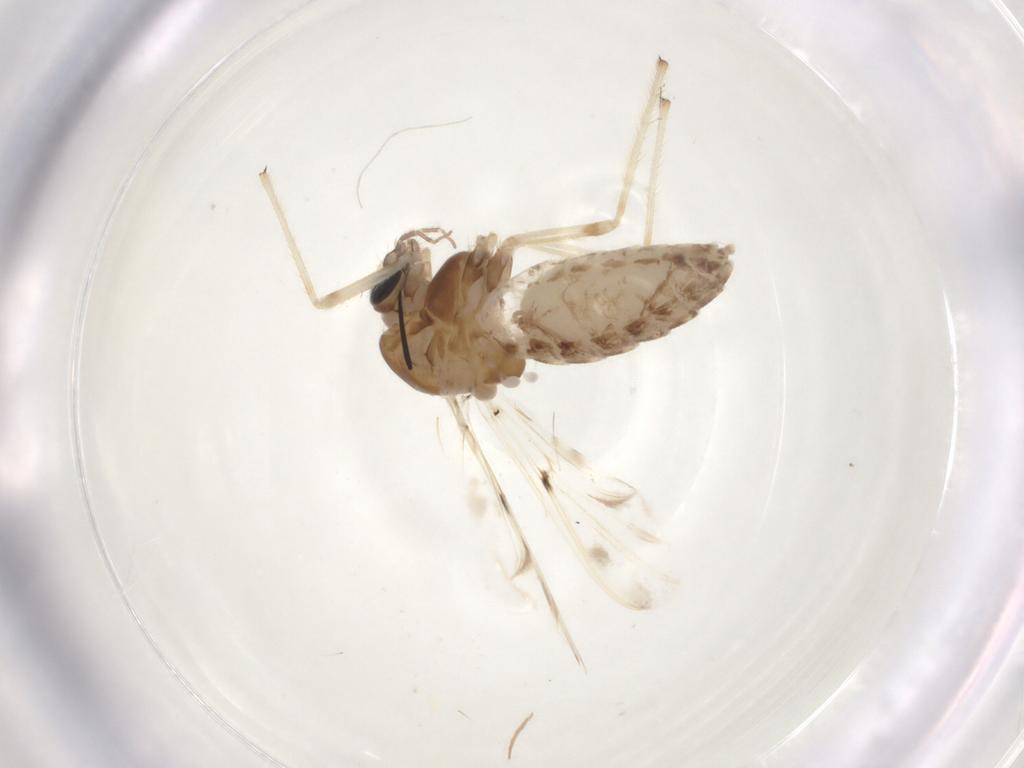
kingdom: Animalia
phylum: Arthropoda
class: Insecta
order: Diptera
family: Chironomidae
